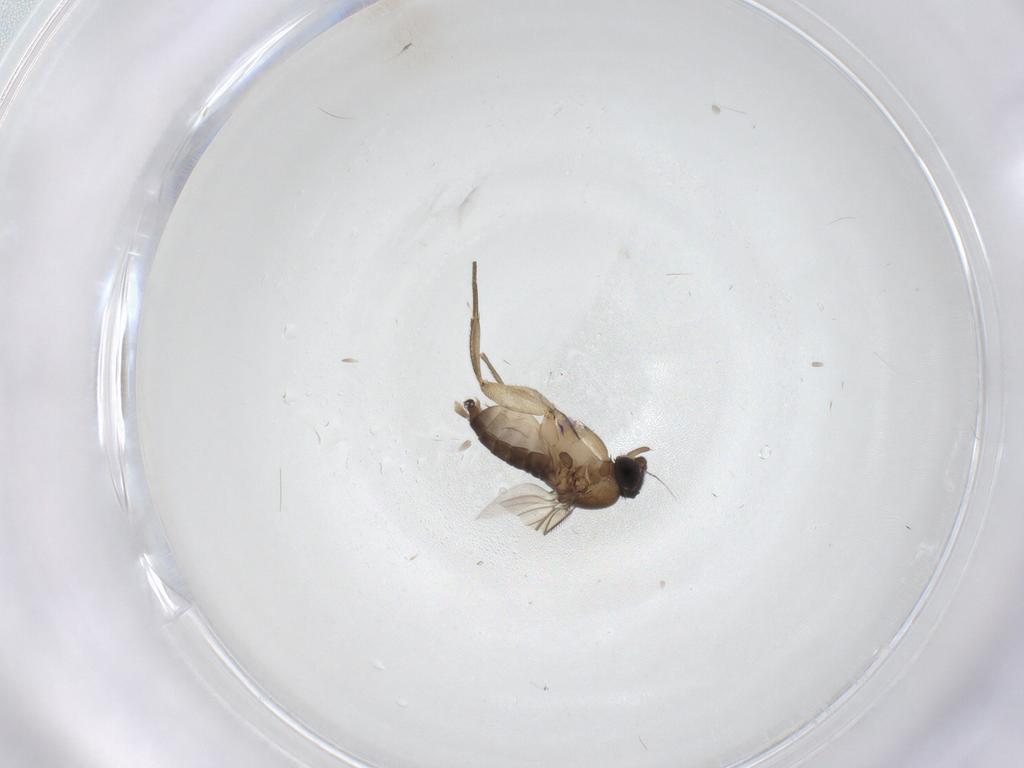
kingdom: Animalia
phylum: Arthropoda
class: Insecta
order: Diptera
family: Phoridae
